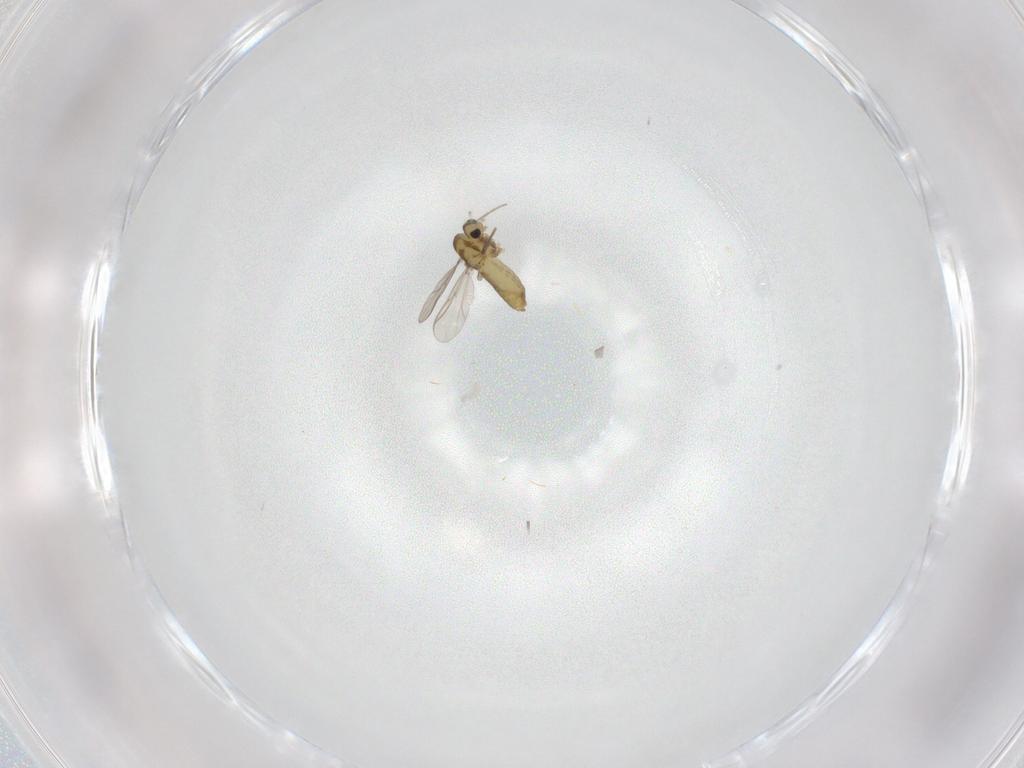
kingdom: Animalia
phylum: Arthropoda
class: Insecta
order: Diptera
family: Chironomidae
